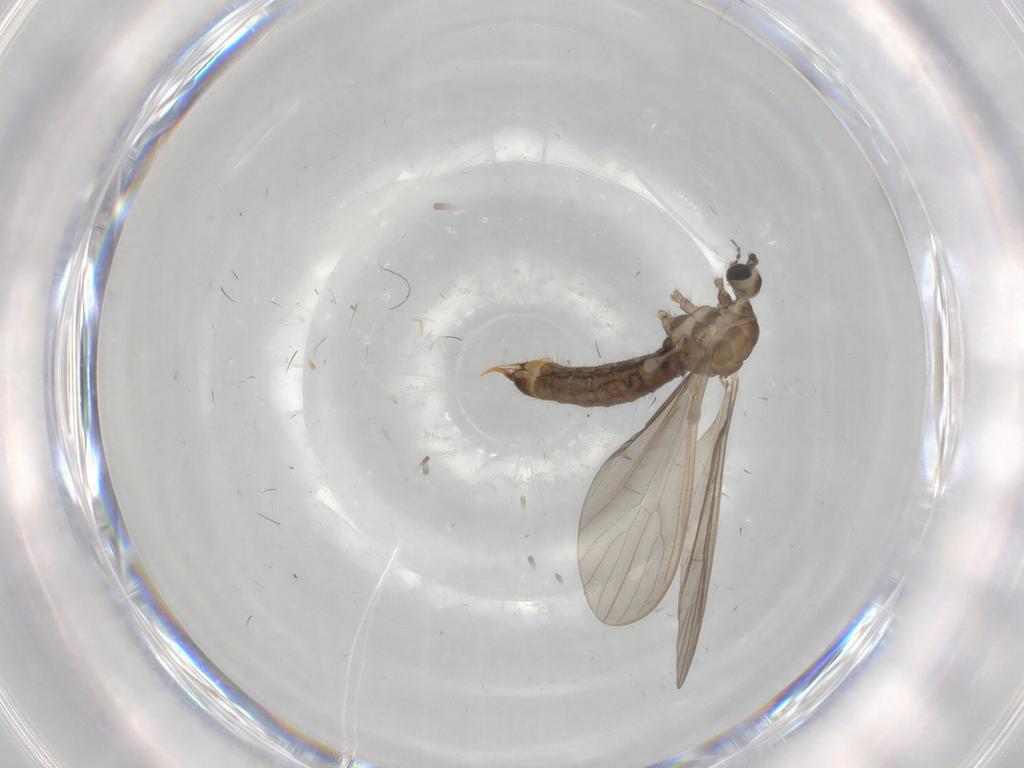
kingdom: Animalia
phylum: Arthropoda
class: Insecta
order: Diptera
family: Limoniidae
